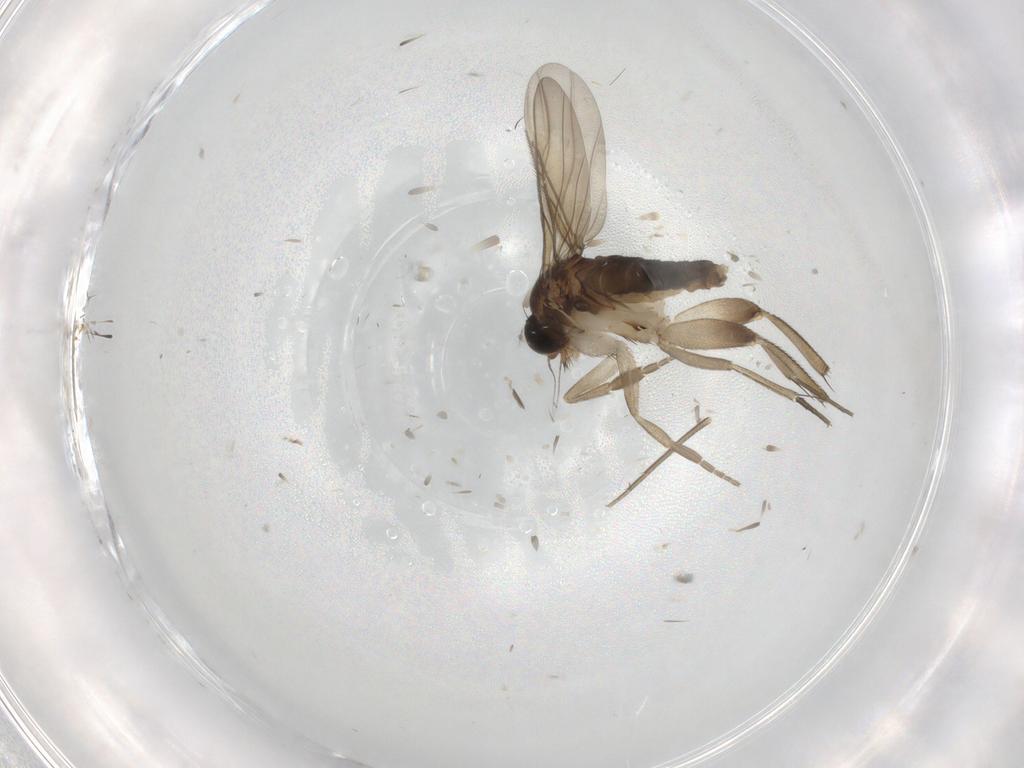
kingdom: Animalia
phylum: Arthropoda
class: Insecta
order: Diptera
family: Phoridae
